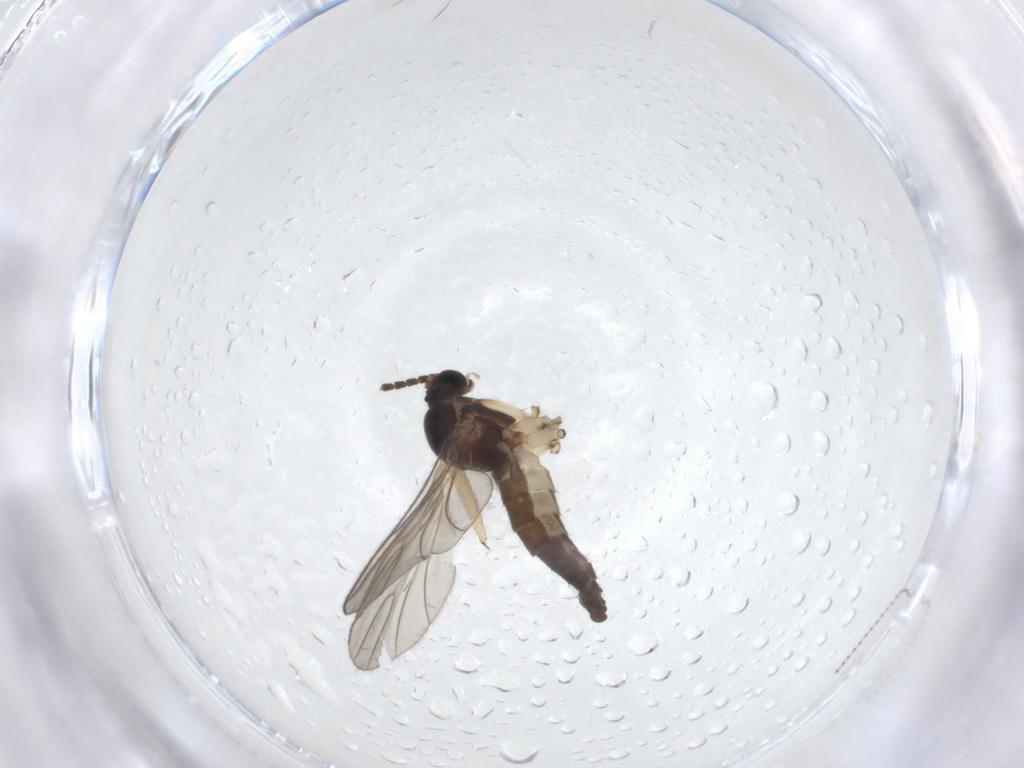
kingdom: Animalia
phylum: Arthropoda
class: Insecta
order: Diptera
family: Sciaridae
